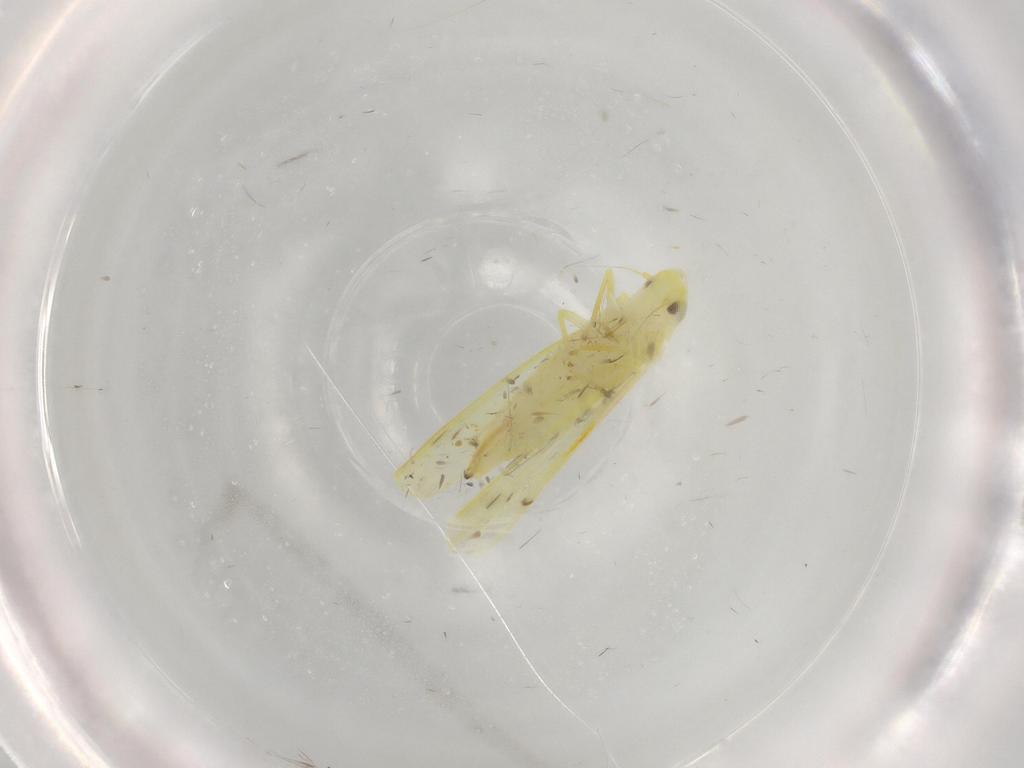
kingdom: Animalia
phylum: Arthropoda
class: Insecta
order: Hemiptera
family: Cicadellidae
